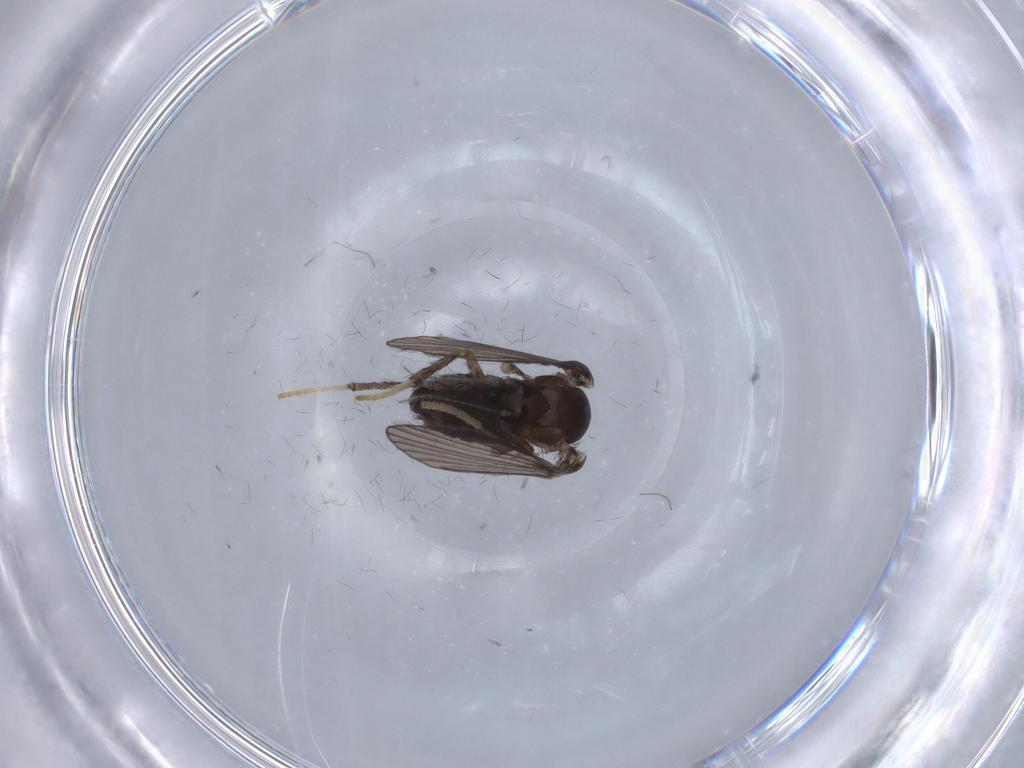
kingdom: Animalia
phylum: Arthropoda
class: Insecta
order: Diptera
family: Psychodidae
